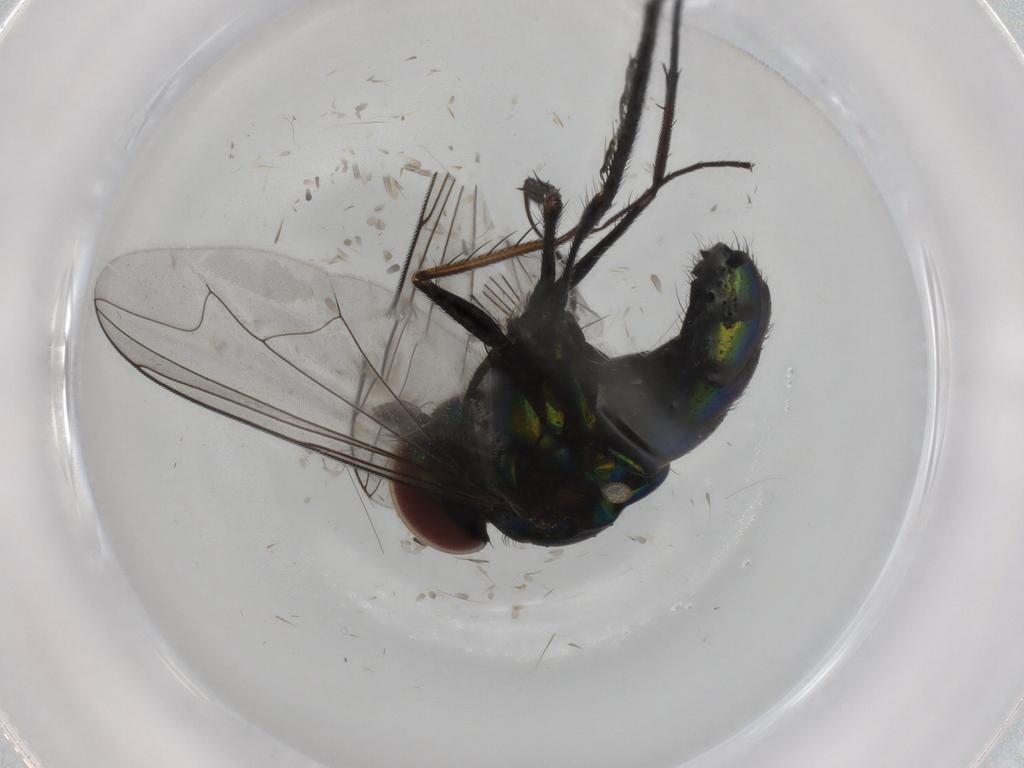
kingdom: Animalia
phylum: Arthropoda
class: Insecta
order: Diptera
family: Dolichopodidae
